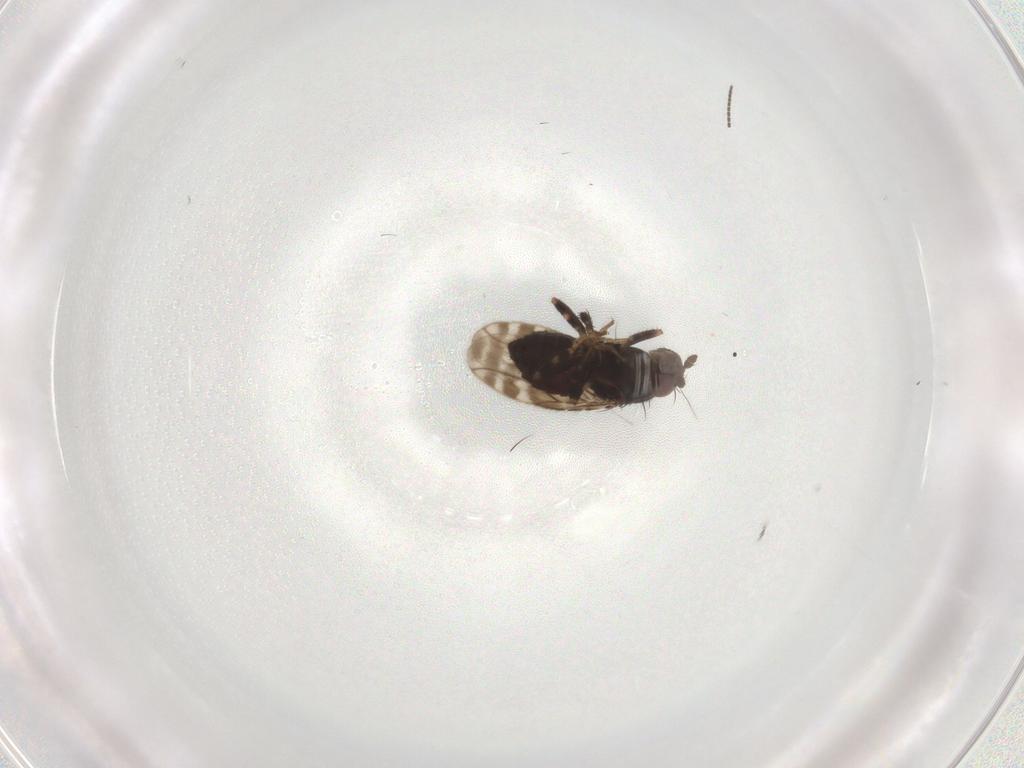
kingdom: Animalia
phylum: Arthropoda
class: Insecta
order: Diptera
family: Sphaeroceridae
